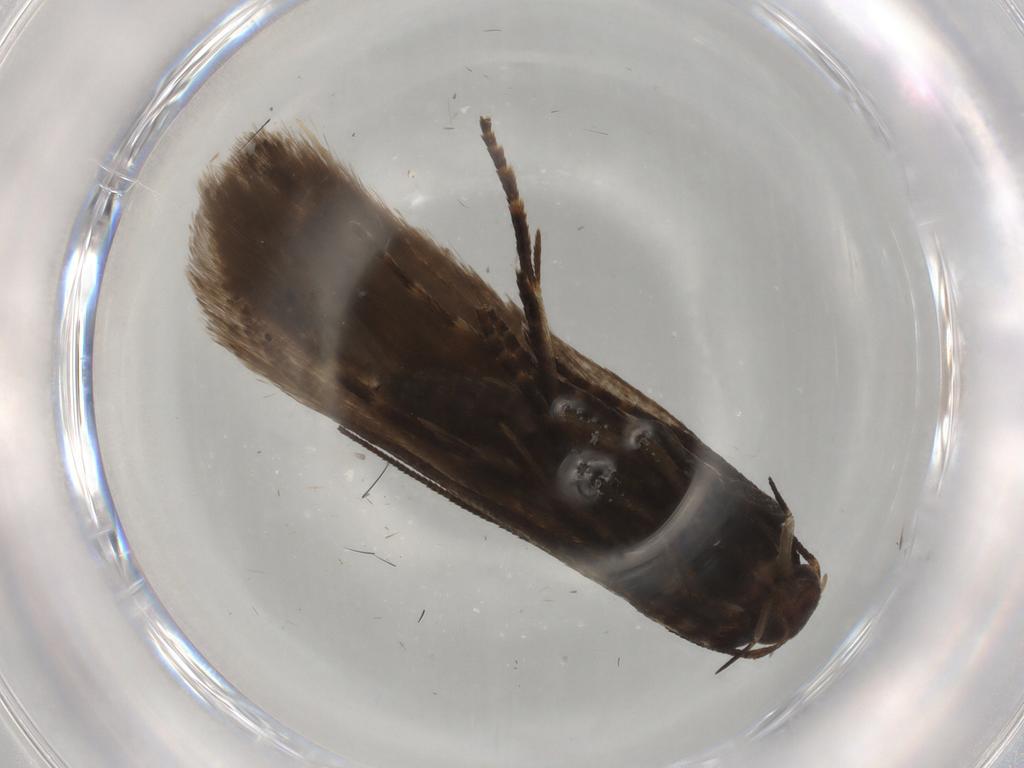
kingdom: Animalia
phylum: Arthropoda
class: Insecta
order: Lepidoptera
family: Gelechiidae
